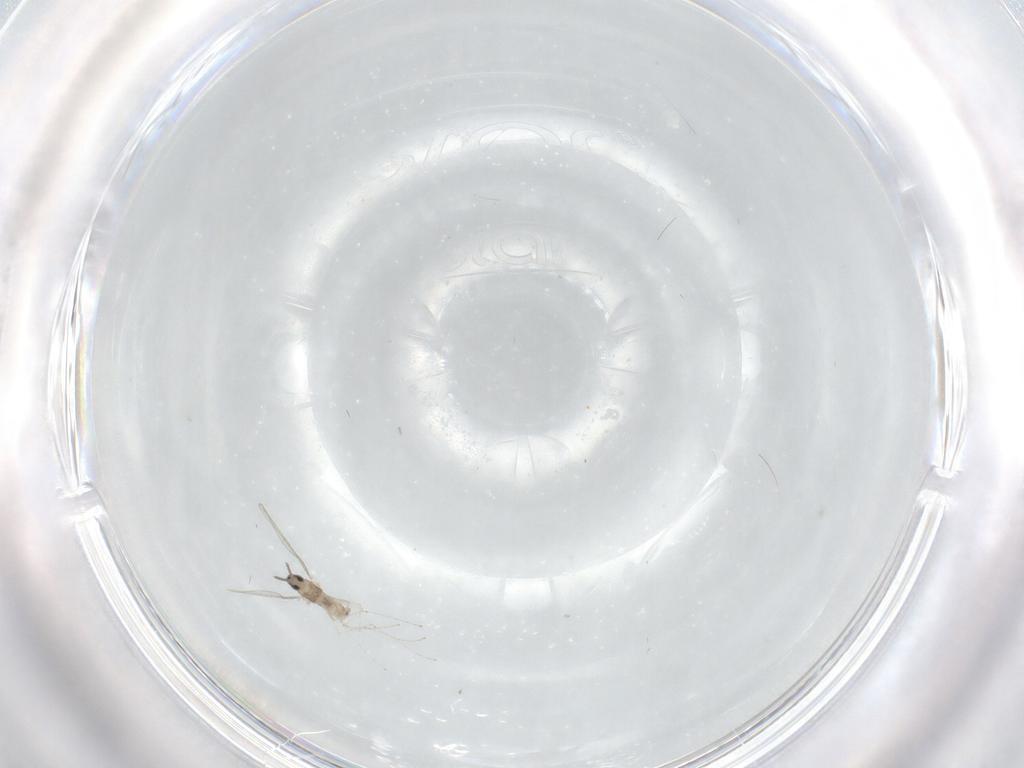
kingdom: Animalia
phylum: Arthropoda
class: Insecta
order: Diptera
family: Cecidomyiidae
